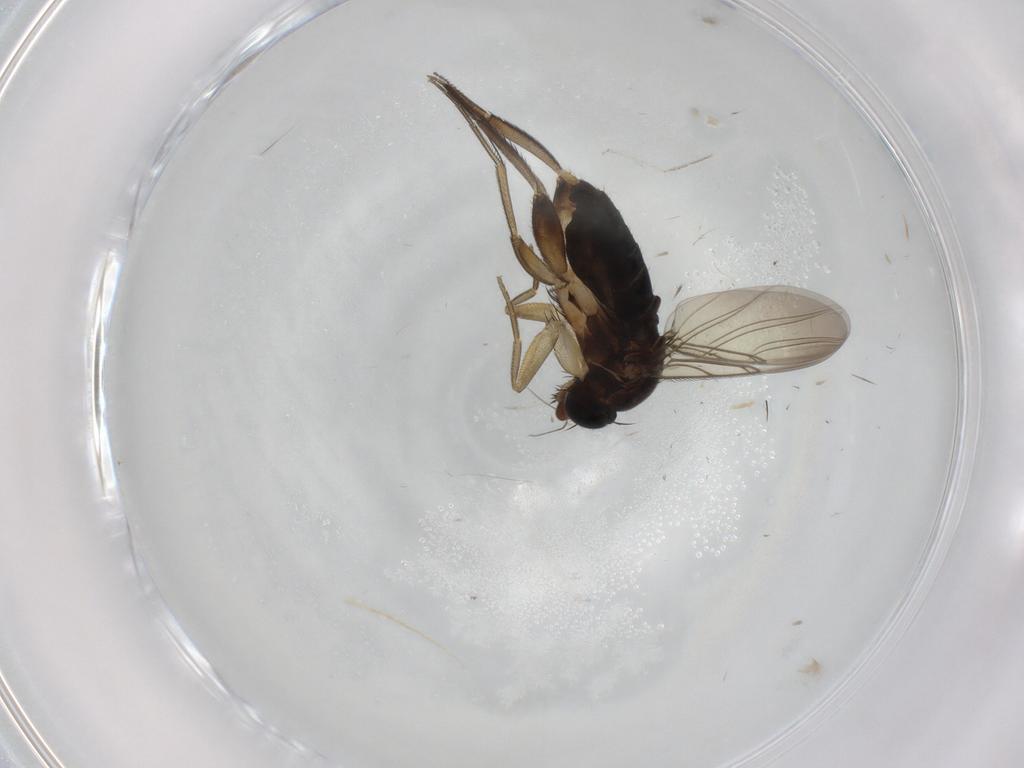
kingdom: Animalia
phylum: Arthropoda
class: Insecta
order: Diptera
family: Phoridae
